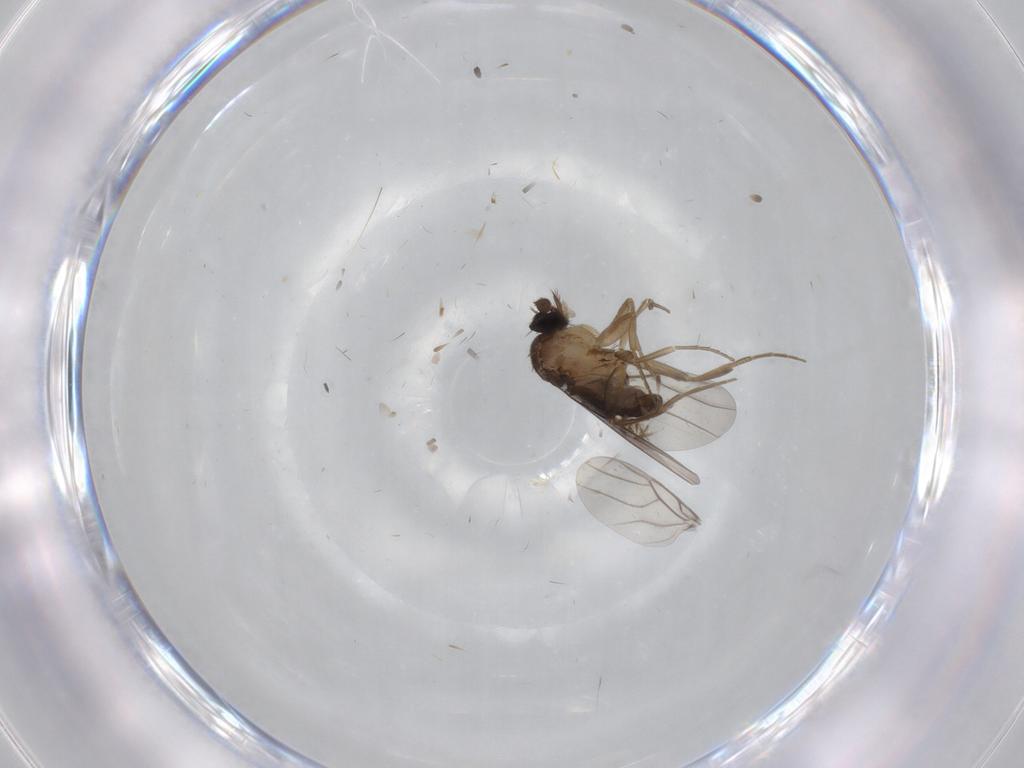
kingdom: Animalia
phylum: Arthropoda
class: Insecta
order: Diptera
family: Phoridae
